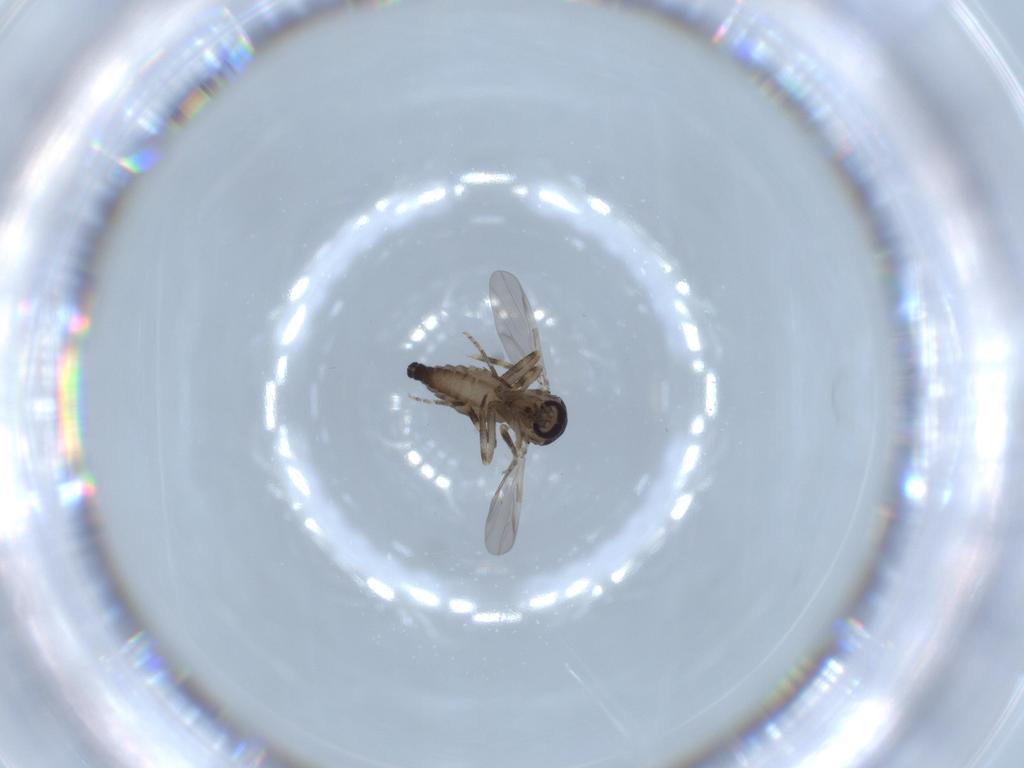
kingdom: Animalia
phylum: Arthropoda
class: Insecta
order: Diptera
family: Ceratopogonidae
